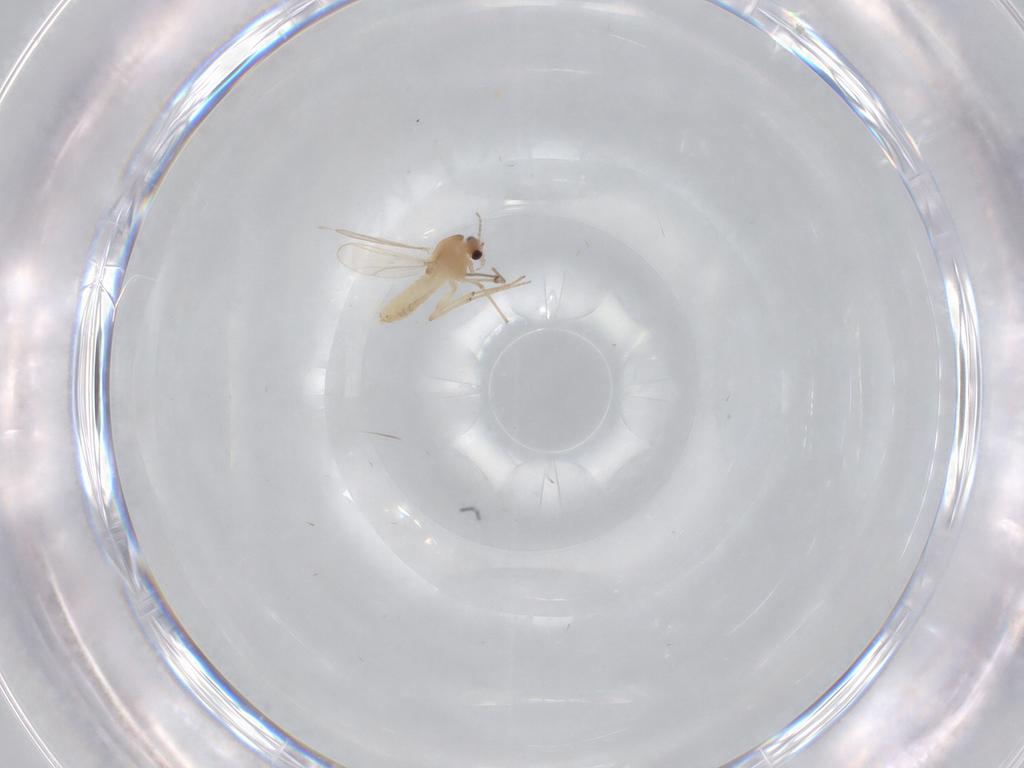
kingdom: Animalia
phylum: Arthropoda
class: Insecta
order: Diptera
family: Chironomidae
